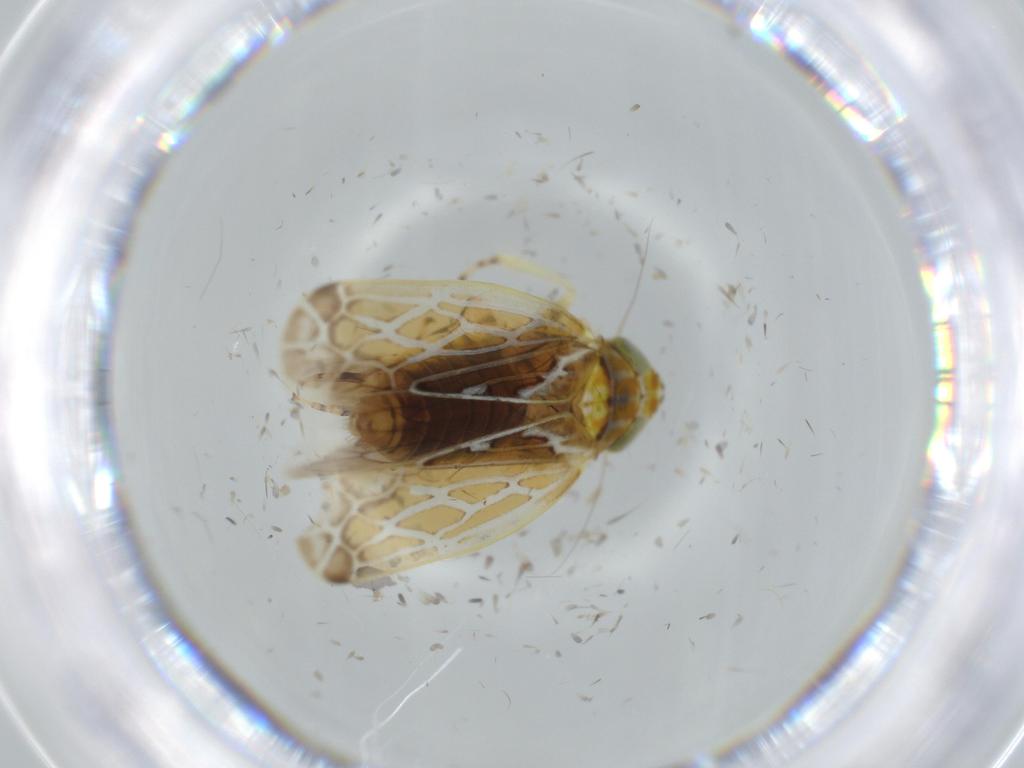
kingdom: Animalia
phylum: Arthropoda
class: Insecta
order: Hemiptera
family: Cicadellidae
